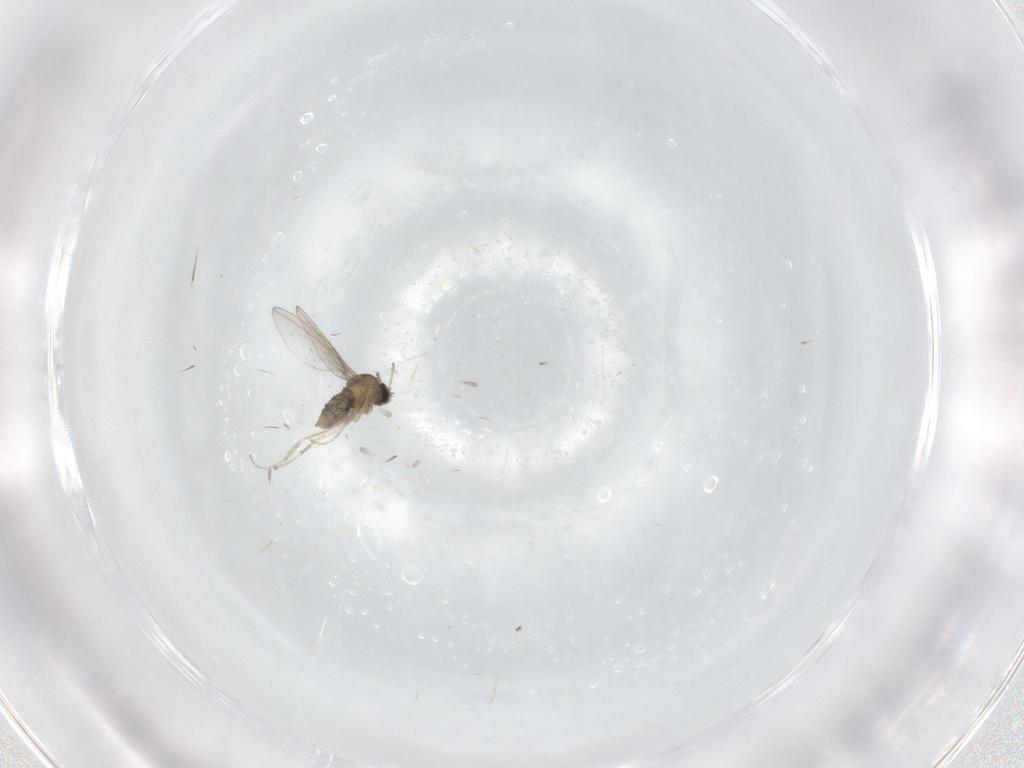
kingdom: Animalia
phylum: Arthropoda
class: Insecta
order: Diptera
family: Cecidomyiidae
